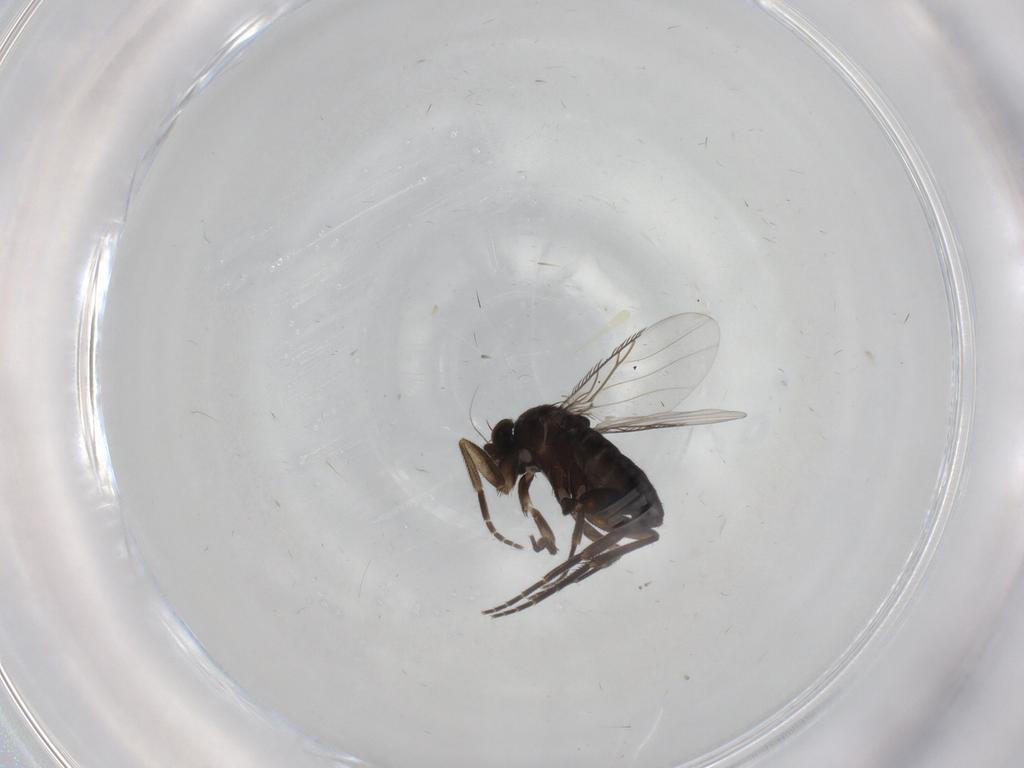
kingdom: Animalia
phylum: Arthropoda
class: Insecta
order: Diptera
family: Phoridae
